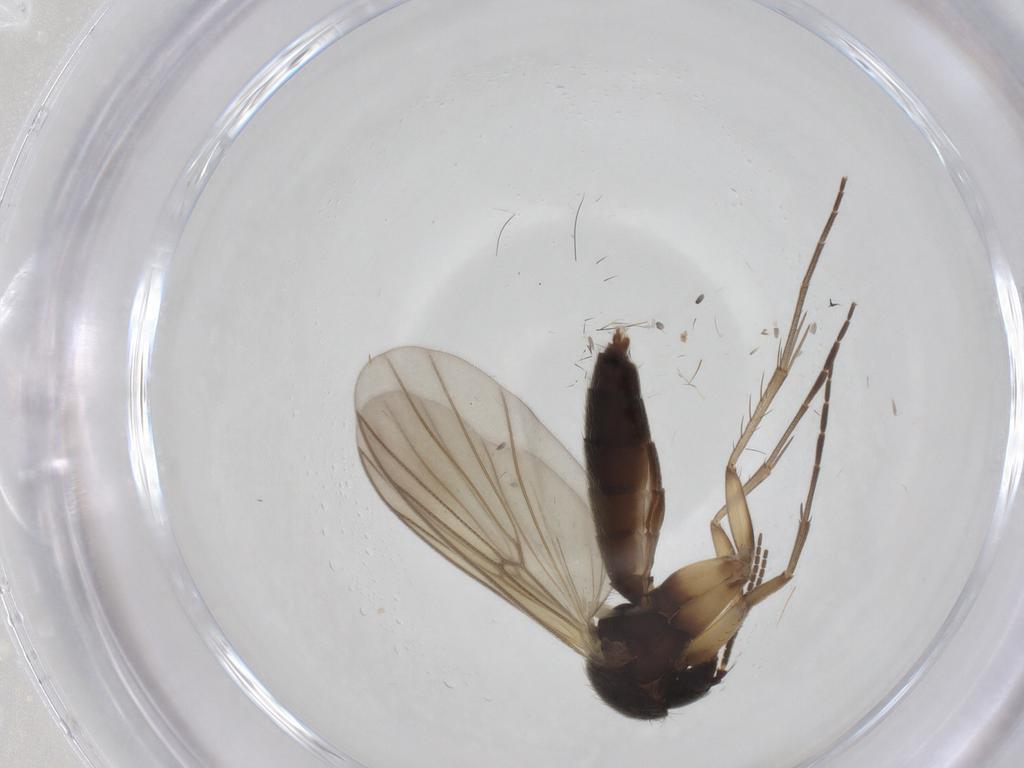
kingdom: Animalia
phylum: Arthropoda
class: Insecta
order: Diptera
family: Mycetophilidae
